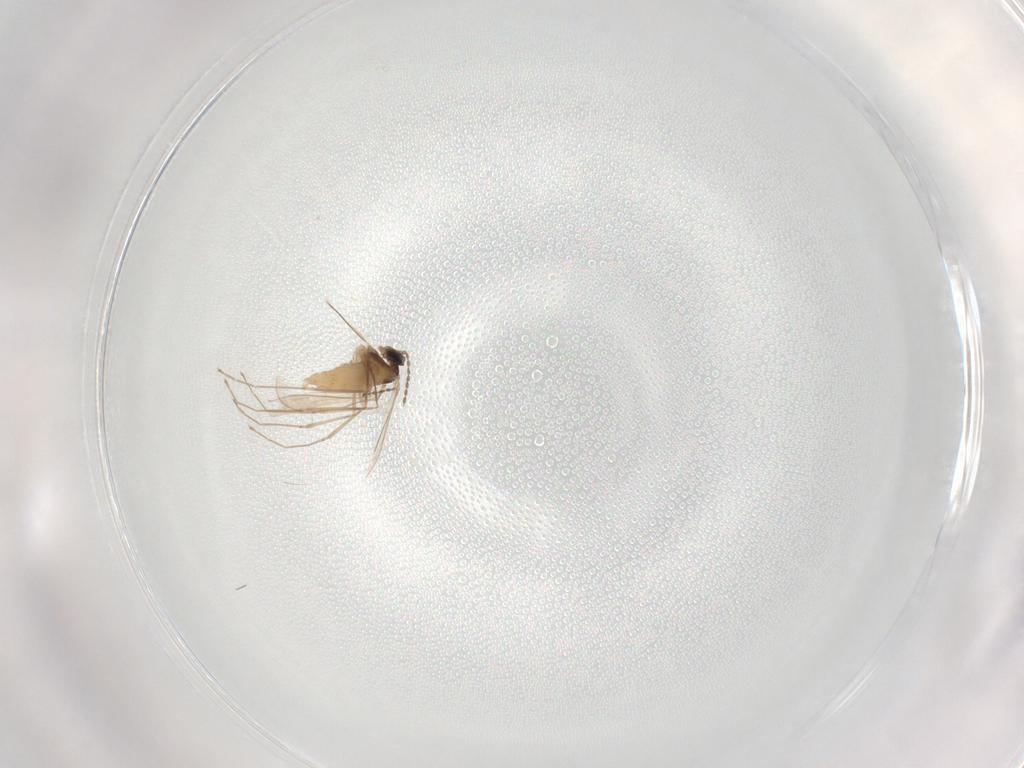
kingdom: Animalia
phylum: Arthropoda
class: Insecta
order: Diptera
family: Cecidomyiidae
